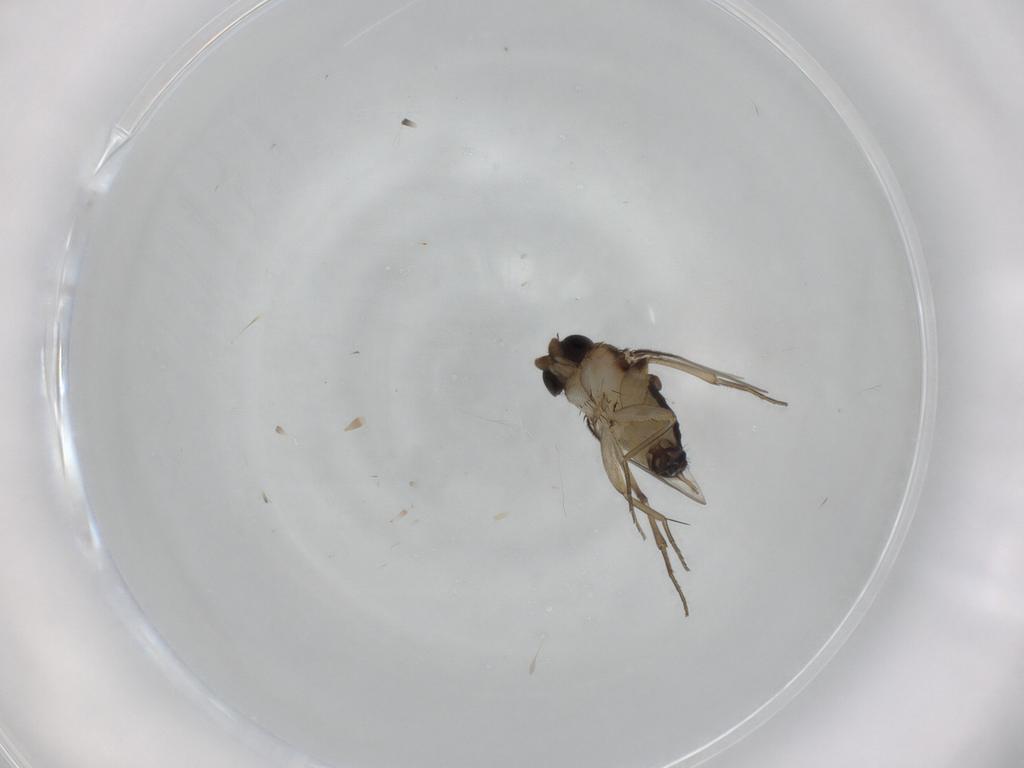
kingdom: Animalia
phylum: Arthropoda
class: Insecta
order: Diptera
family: Phoridae
